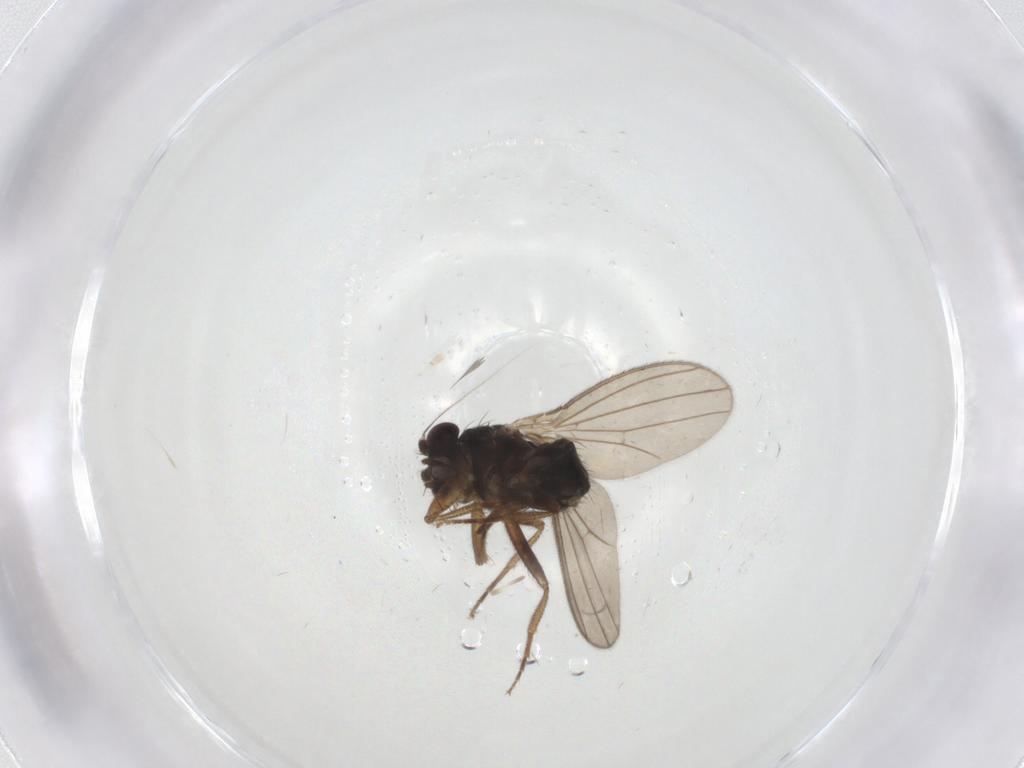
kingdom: Animalia
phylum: Arthropoda
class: Insecta
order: Diptera
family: Inbiomyiidae
